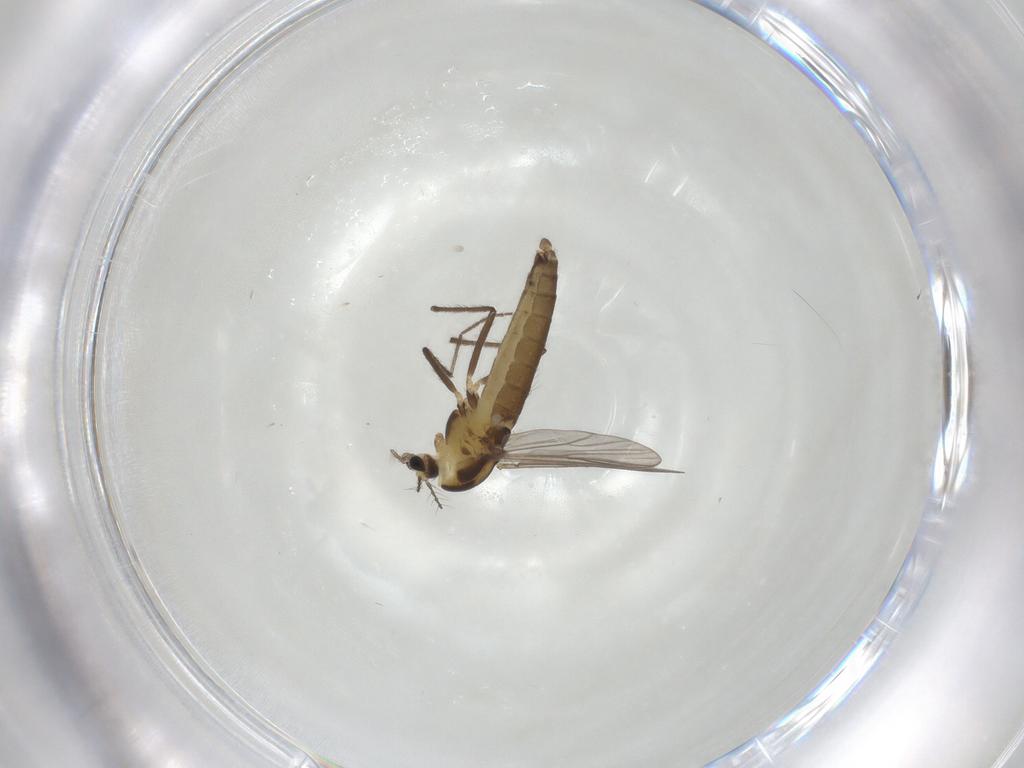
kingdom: Animalia
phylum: Arthropoda
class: Insecta
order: Diptera
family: Chironomidae
